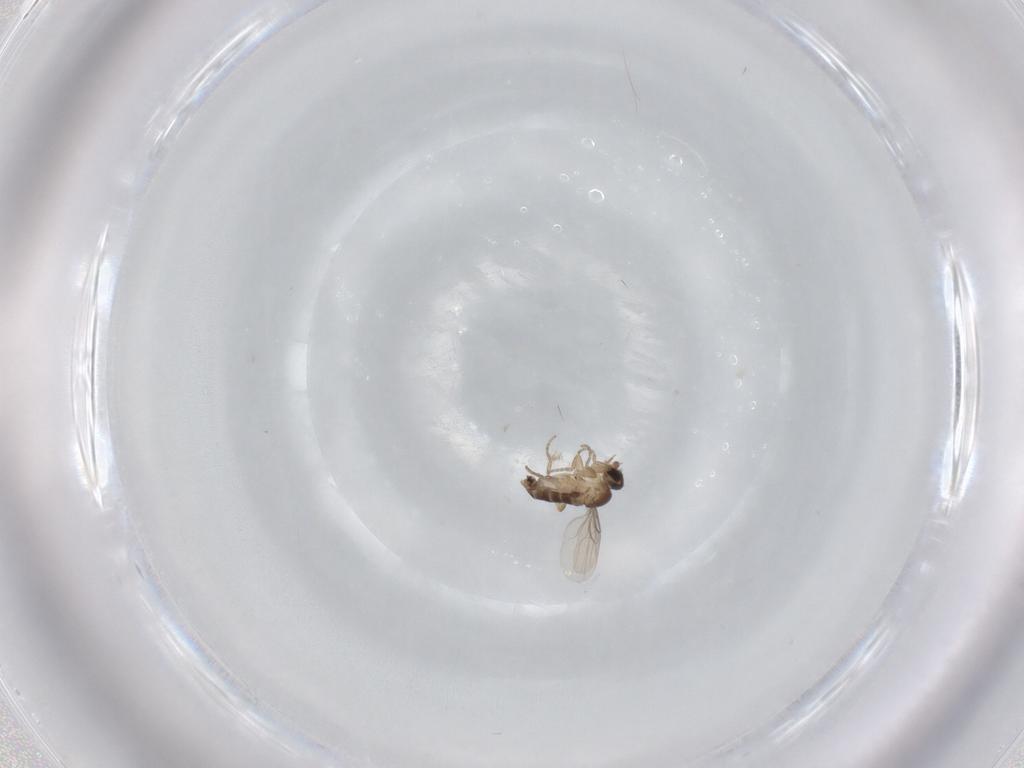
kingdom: Animalia
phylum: Arthropoda
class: Insecta
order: Diptera
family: Phoridae
